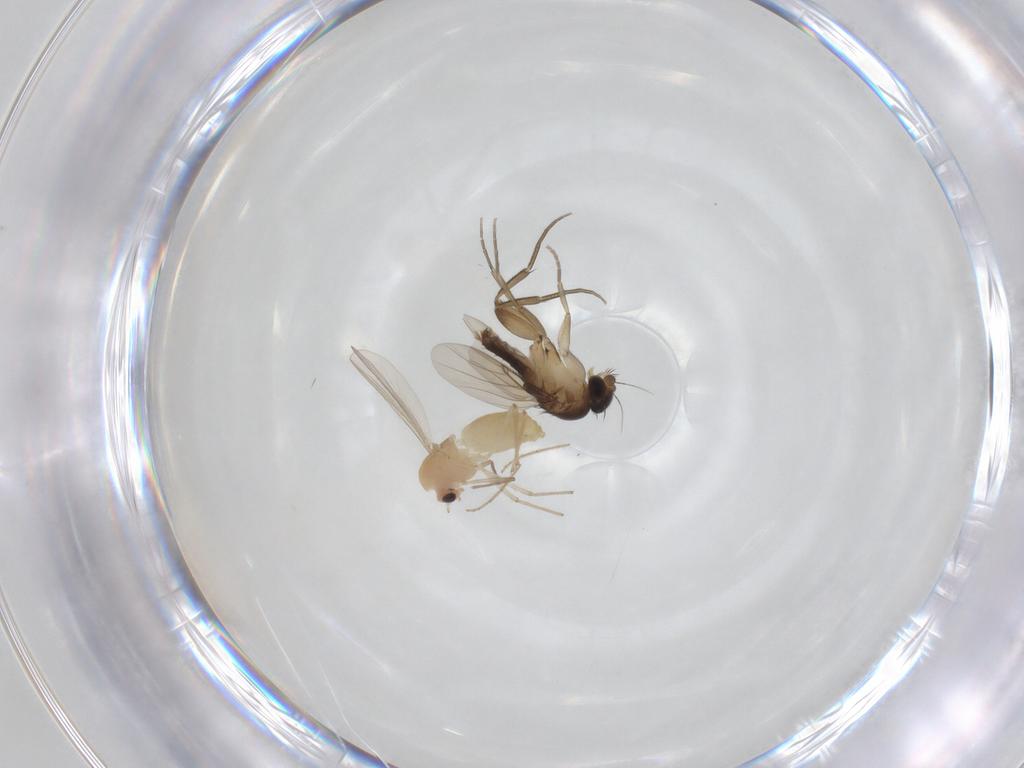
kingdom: Animalia
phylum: Arthropoda
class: Insecta
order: Diptera
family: Chironomidae
